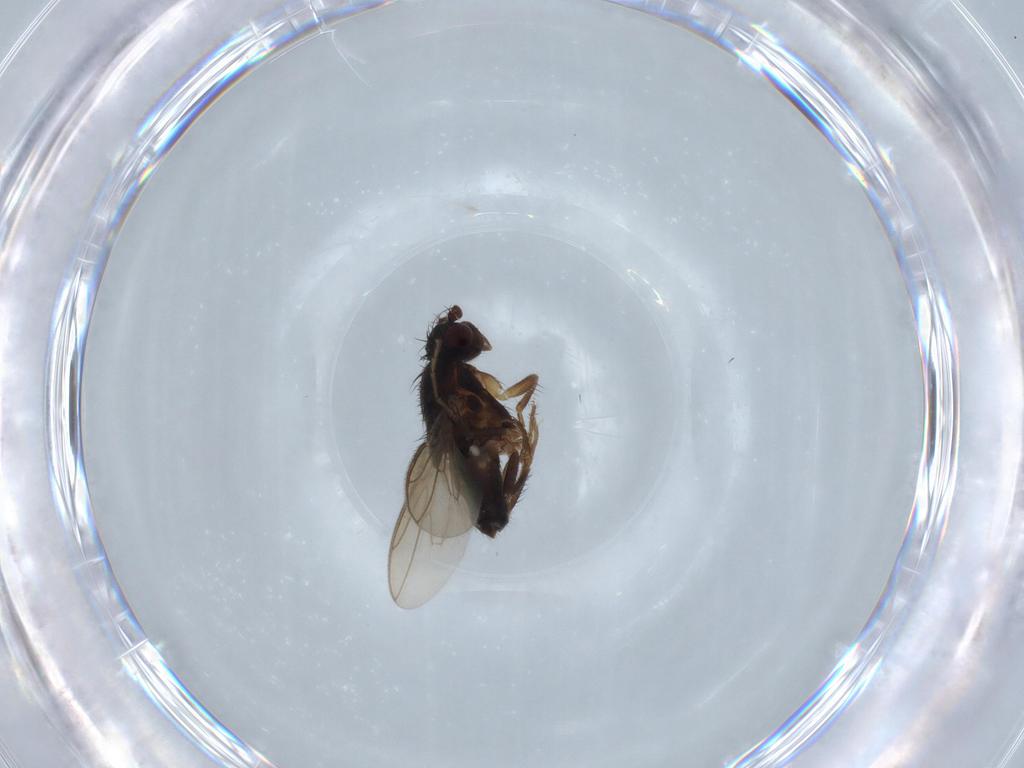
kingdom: Animalia
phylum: Arthropoda
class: Insecta
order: Diptera
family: Sphaeroceridae
